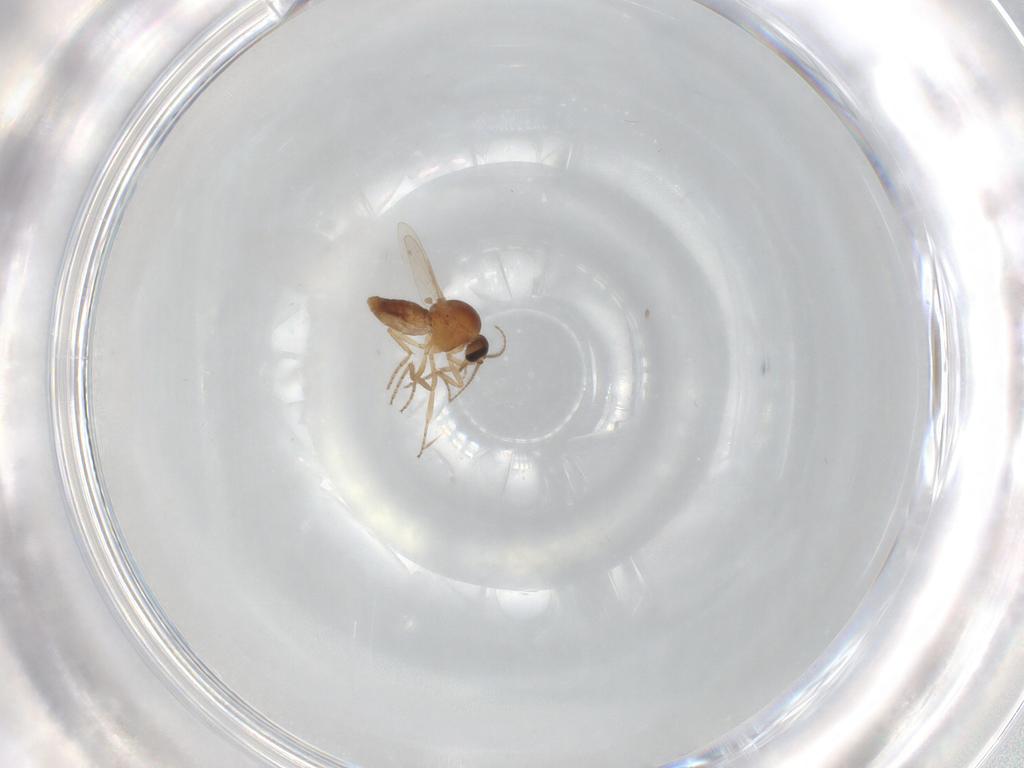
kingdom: Animalia
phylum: Arthropoda
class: Insecta
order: Diptera
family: Ceratopogonidae
